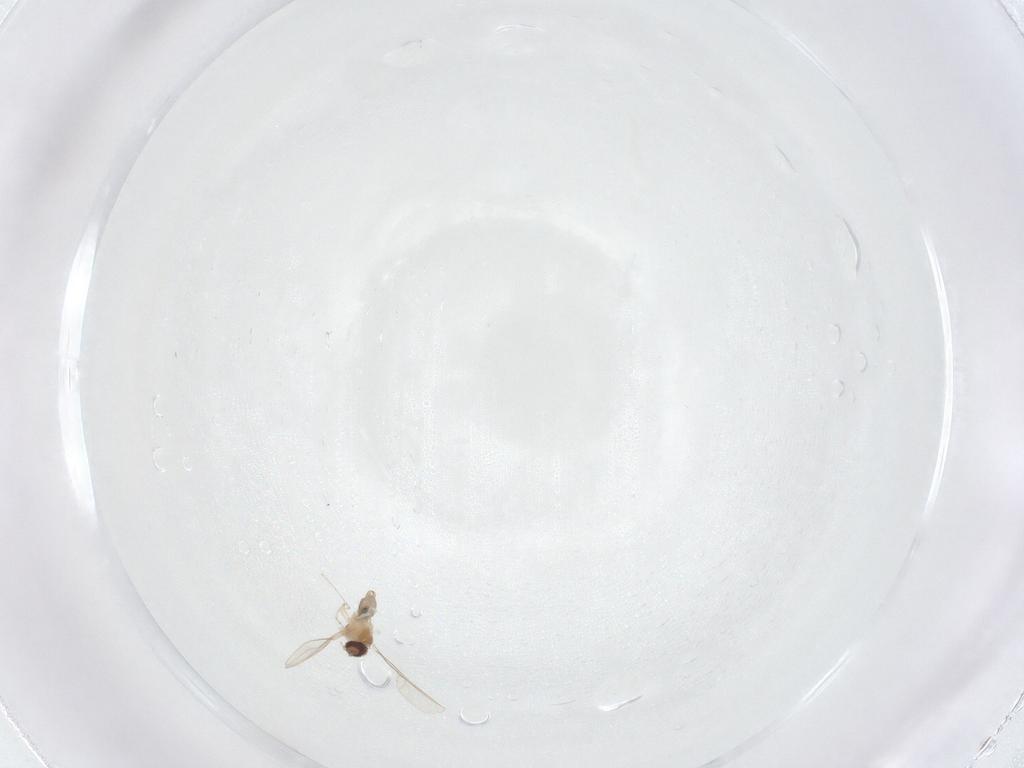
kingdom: Animalia
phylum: Arthropoda
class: Insecta
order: Diptera
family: Cecidomyiidae
